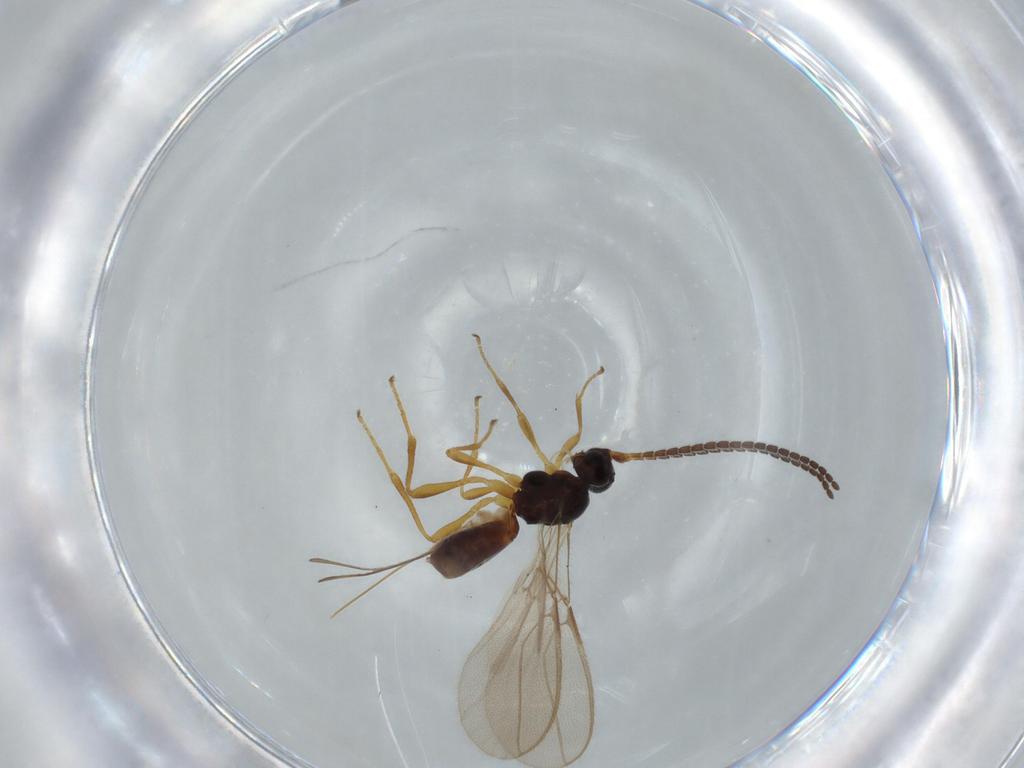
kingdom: Animalia
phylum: Arthropoda
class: Insecta
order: Hymenoptera
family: Braconidae
